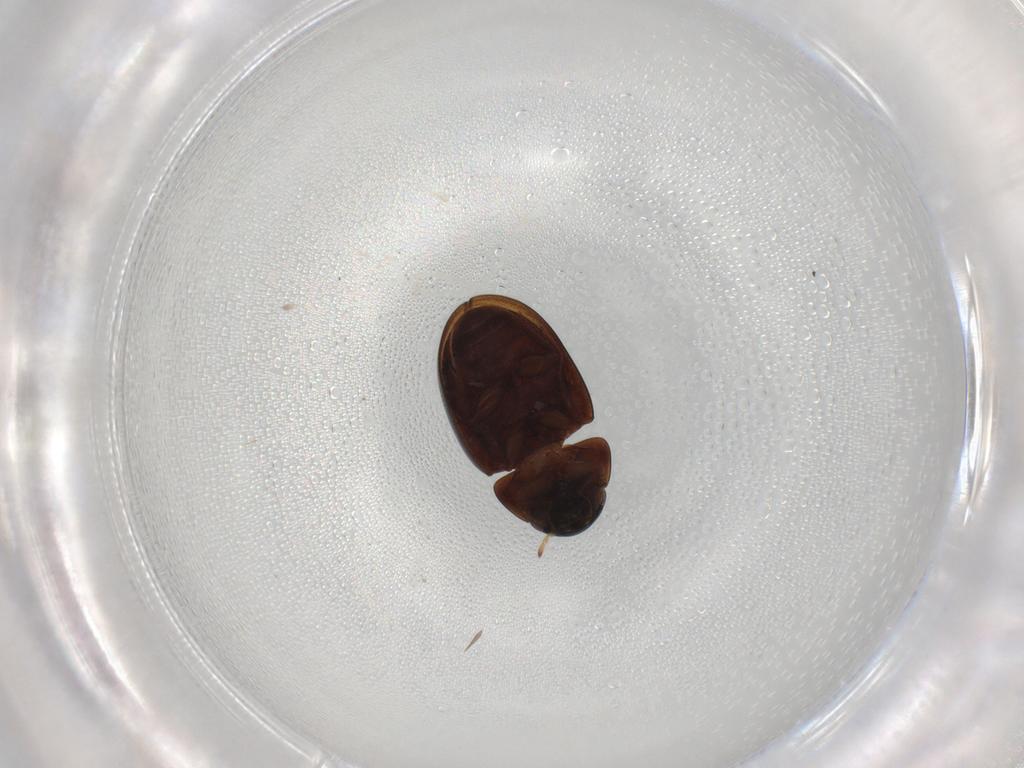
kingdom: Animalia
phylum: Arthropoda
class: Insecta
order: Coleoptera
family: Hydrophilidae
